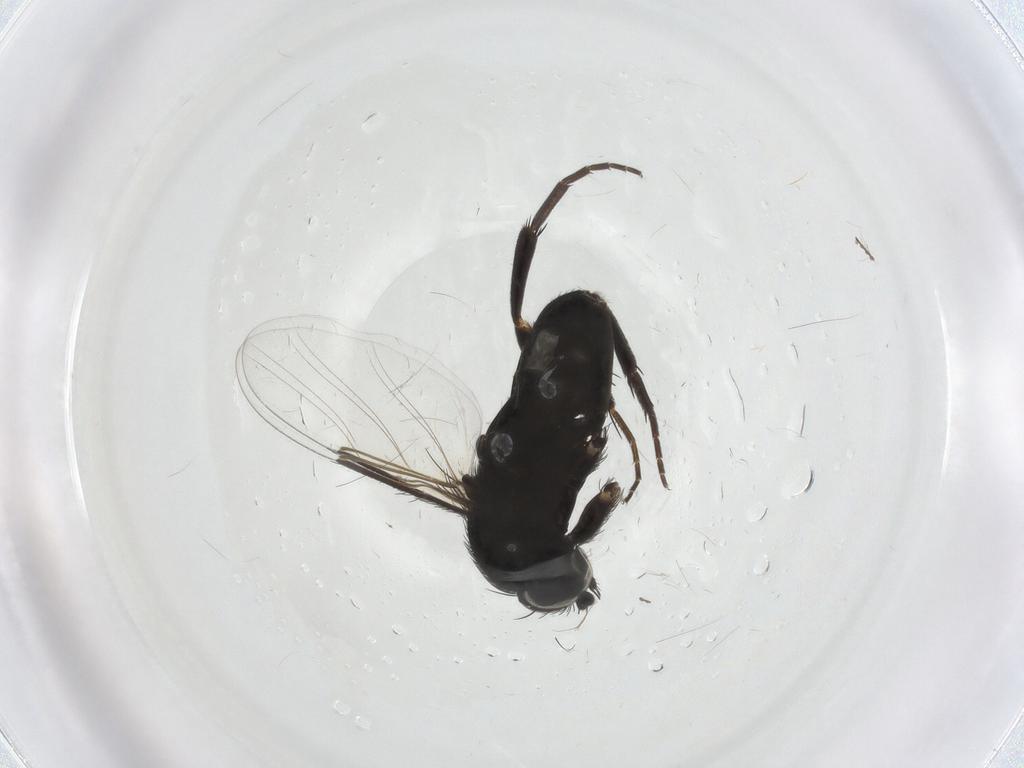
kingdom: Animalia
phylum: Arthropoda
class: Insecta
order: Diptera
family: Phoridae
